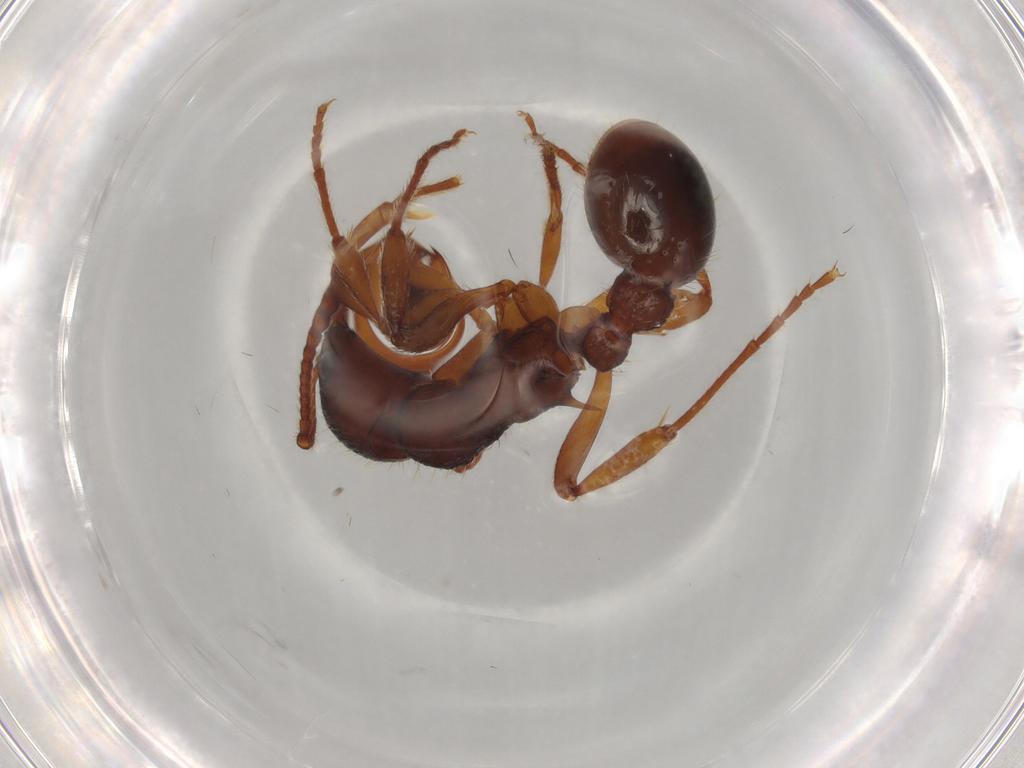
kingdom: Animalia
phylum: Arthropoda
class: Insecta
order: Hymenoptera
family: Formicidae
